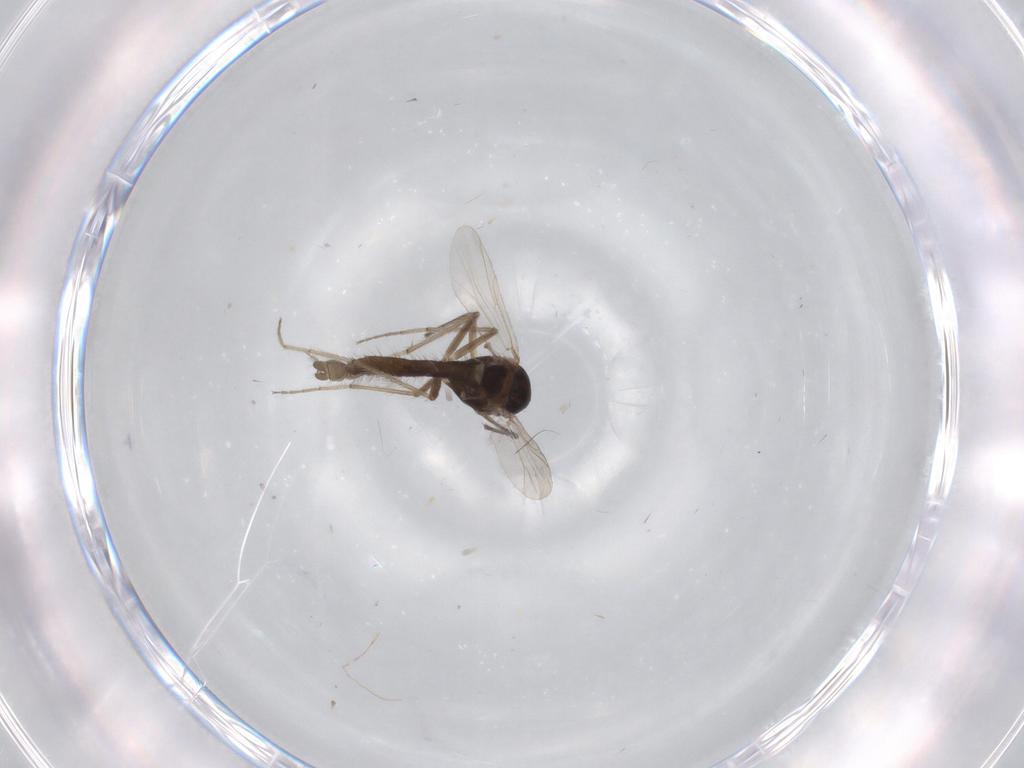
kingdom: Animalia
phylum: Arthropoda
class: Insecta
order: Diptera
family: Chironomidae
